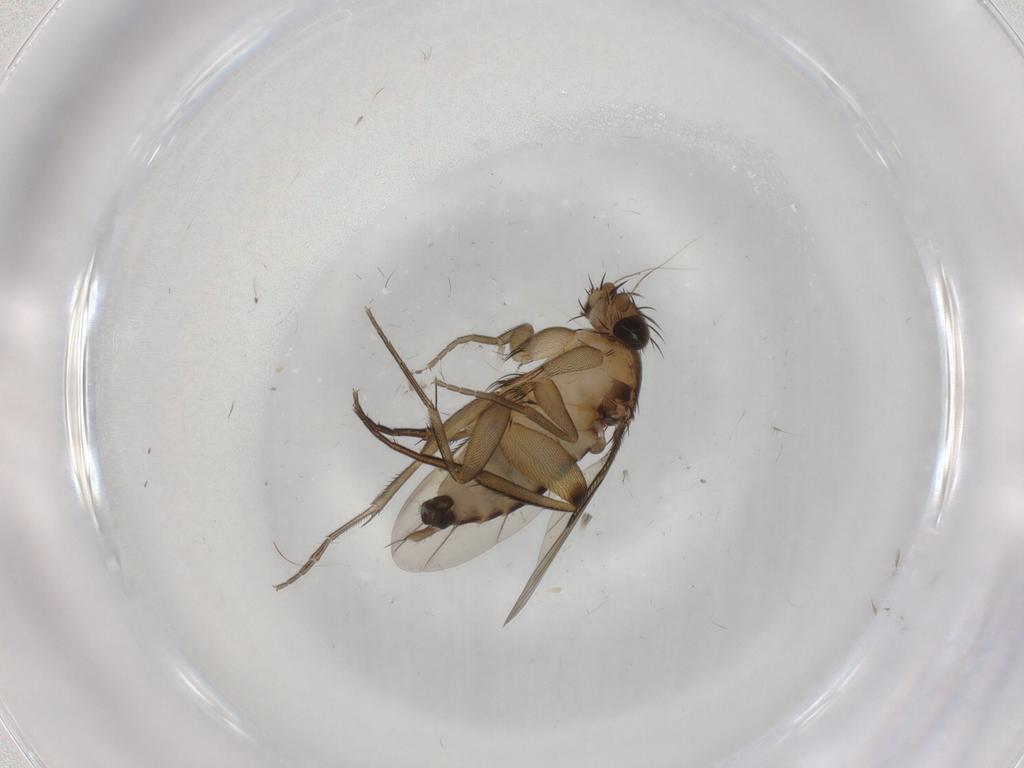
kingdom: Animalia
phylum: Arthropoda
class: Insecta
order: Diptera
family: Phoridae
